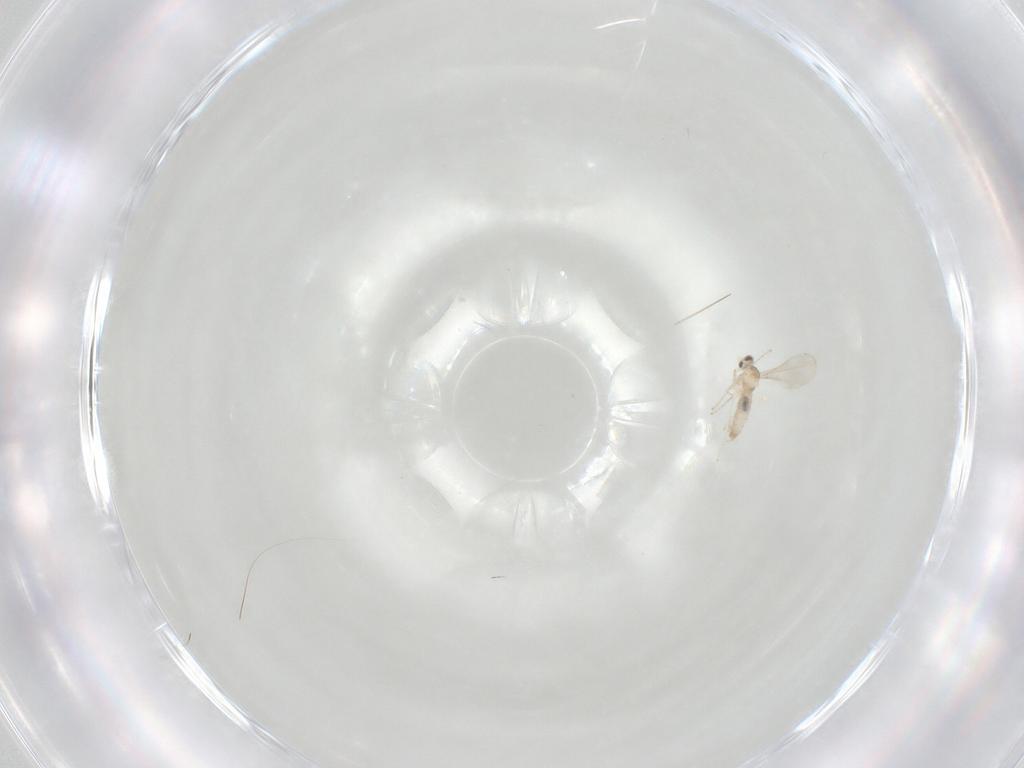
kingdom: Animalia
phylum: Arthropoda
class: Insecta
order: Diptera
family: Cecidomyiidae
